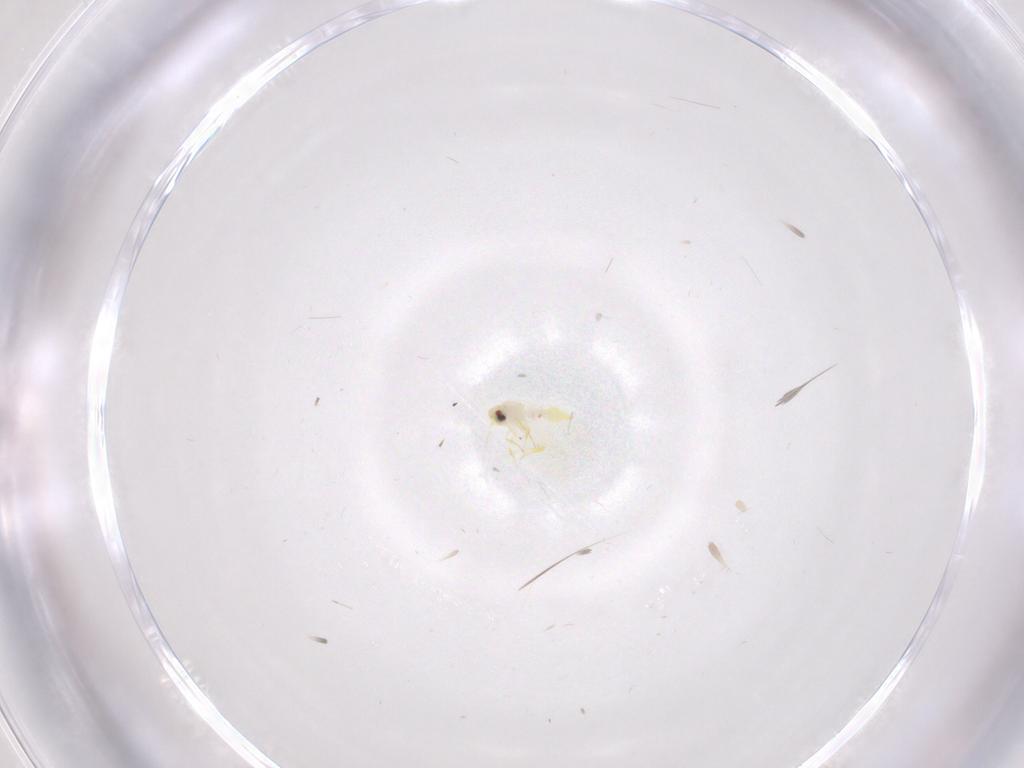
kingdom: Animalia
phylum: Arthropoda
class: Insecta
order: Hemiptera
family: Aleyrodidae
